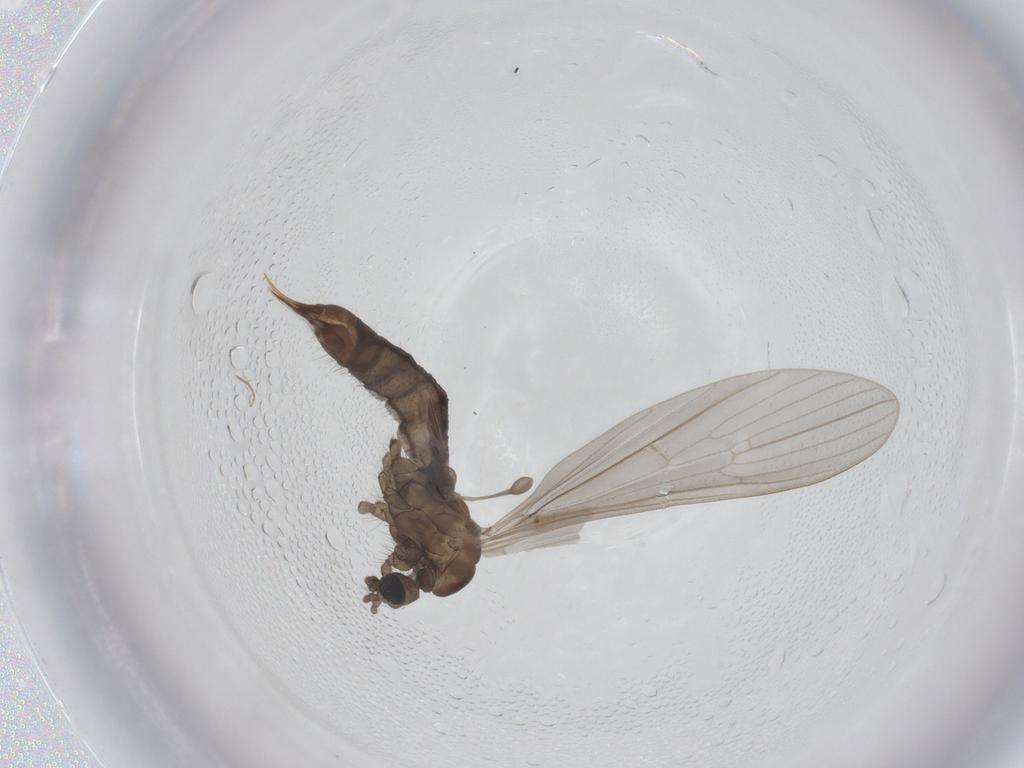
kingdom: Animalia
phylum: Arthropoda
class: Insecta
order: Diptera
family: Limoniidae
